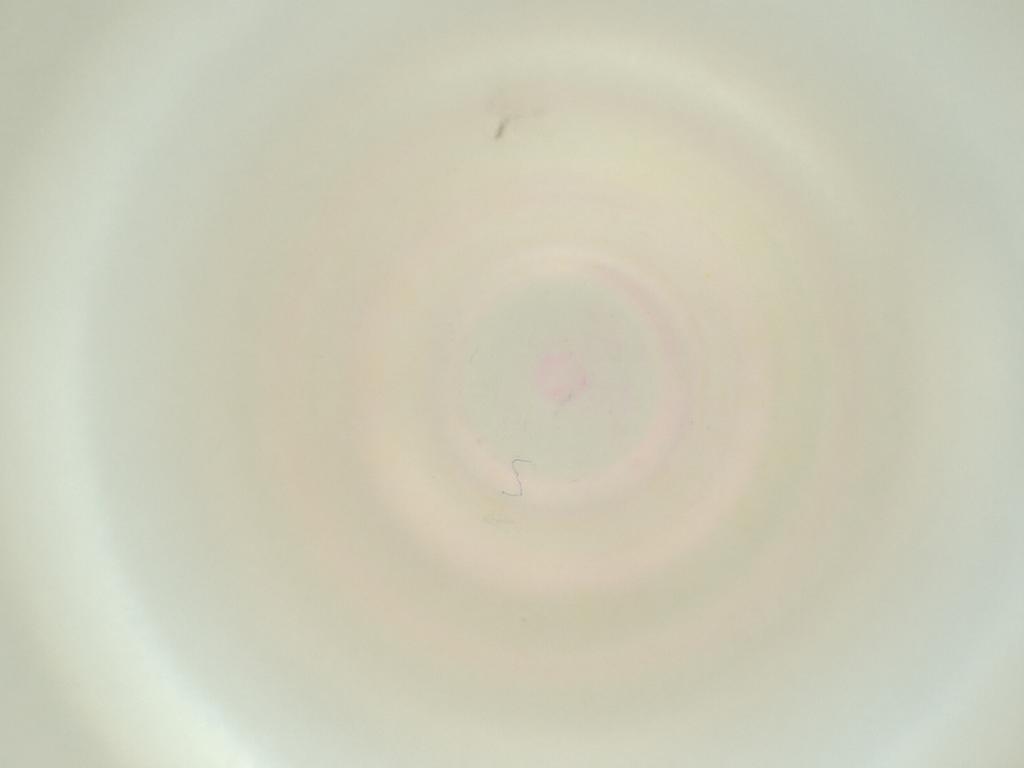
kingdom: Animalia
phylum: Arthropoda
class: Insecta
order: Diptera
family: Cecidomyiidae
